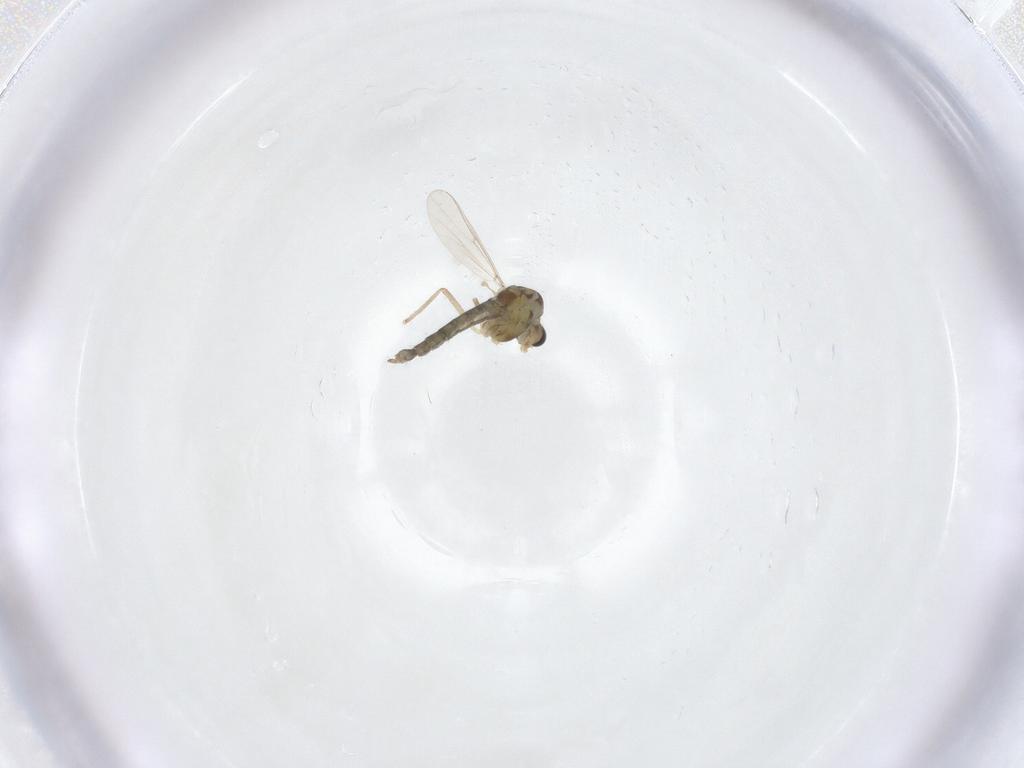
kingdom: Animalia
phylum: Arthropoda
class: Insecta
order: Diptera
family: Chironomidae
